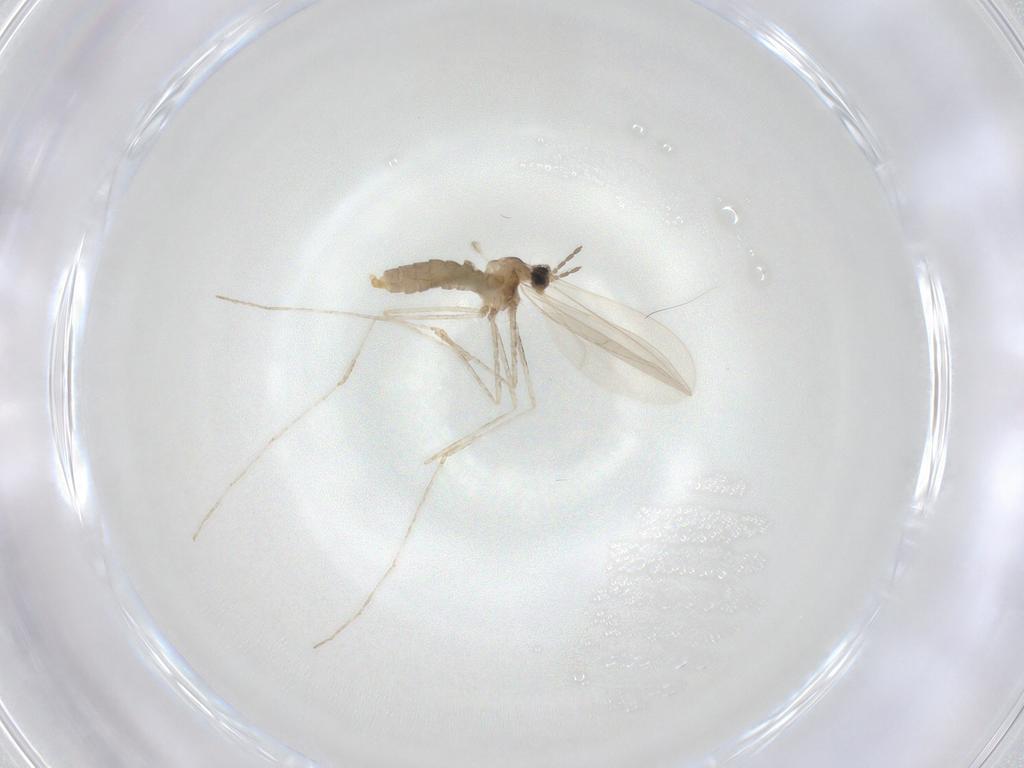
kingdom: Animalia
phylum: Arthropoda
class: Insecta
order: Diptera
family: Cecidomyiidae
